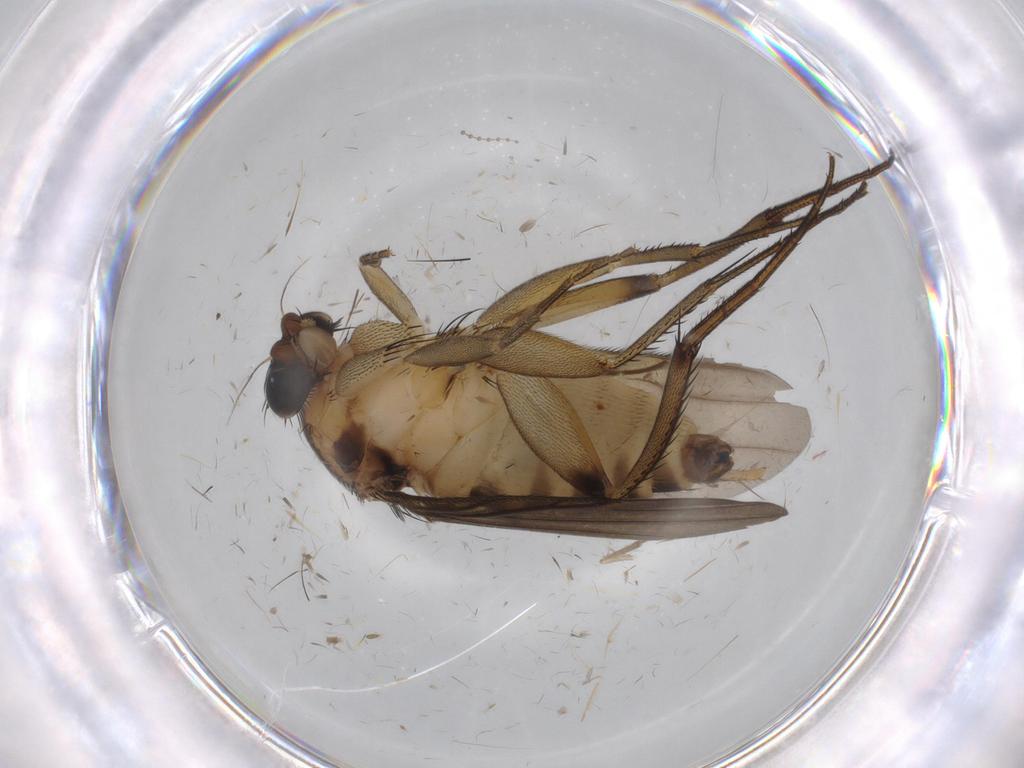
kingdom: Animalia
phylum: Arthropoda
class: Insecta
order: Diptera
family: Phoridae
